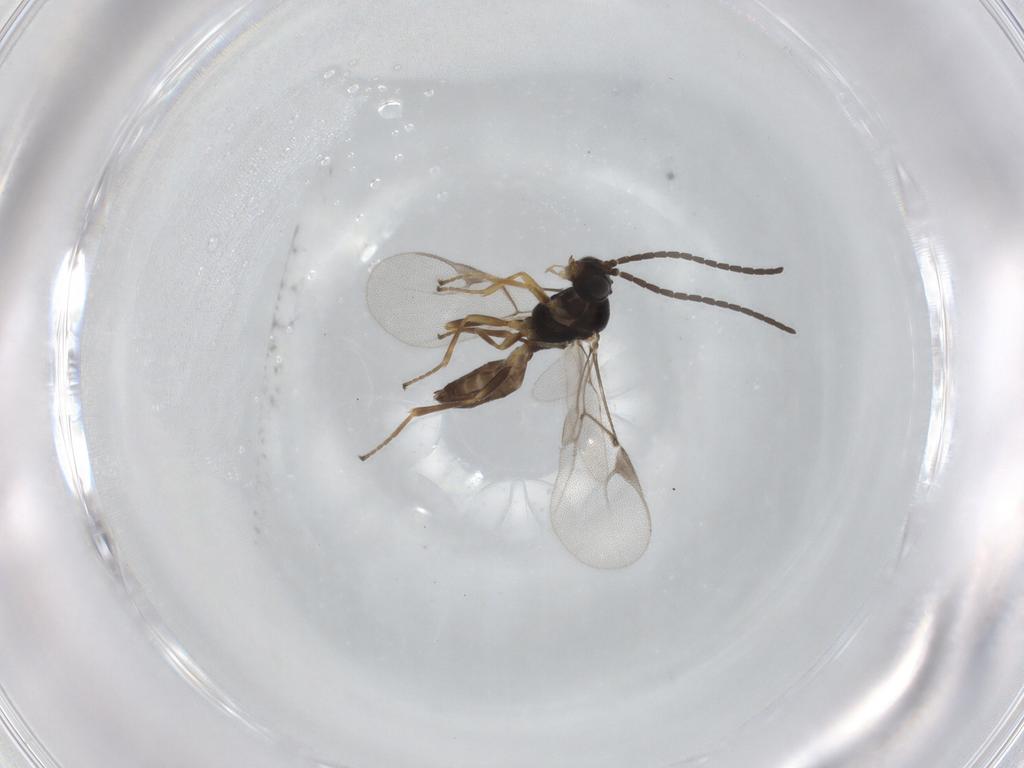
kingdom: Animalia
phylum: Arthropoda
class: Insecta
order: Hymenoptera
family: Braconidae
